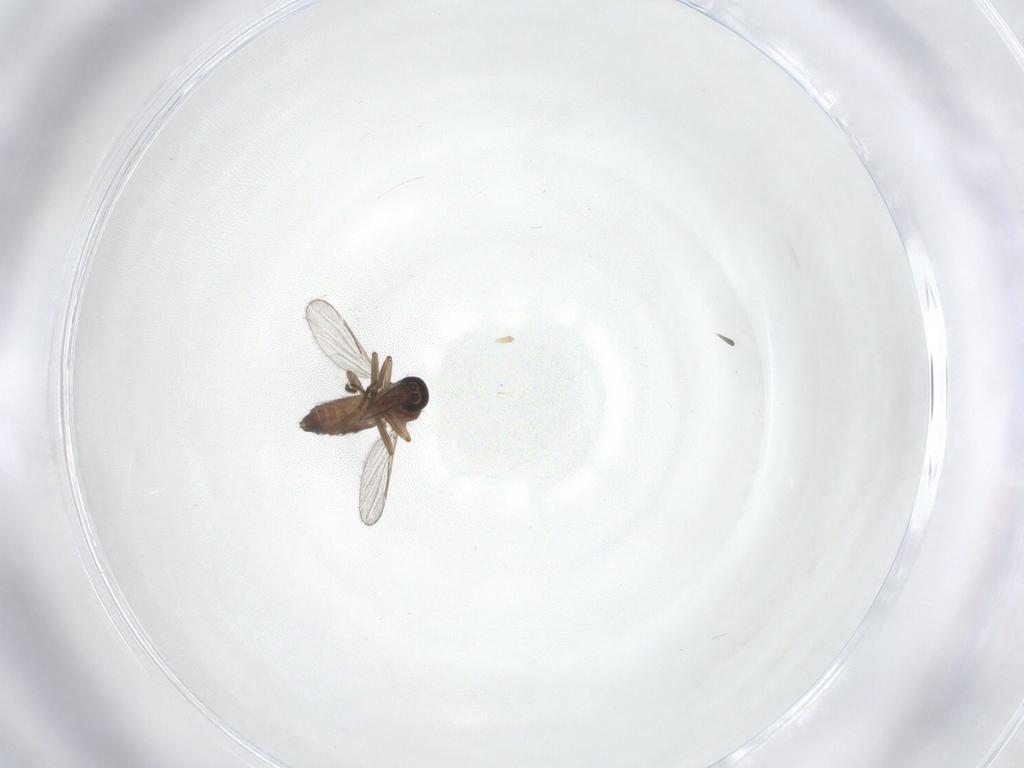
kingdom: Animalia
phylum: Arthropoda
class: Insecta
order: Diptera
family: Ceratopogonidae
